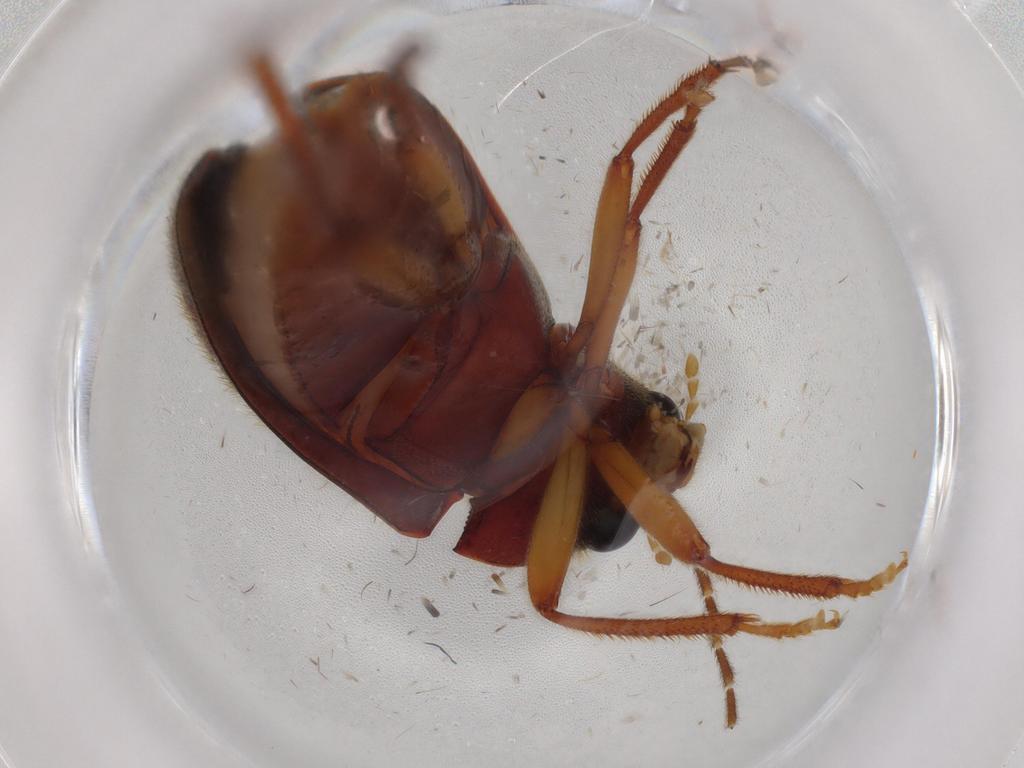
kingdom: Animalia
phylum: Arthropoda
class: Insecta
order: Coleoptera
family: Ptilodactylidae
